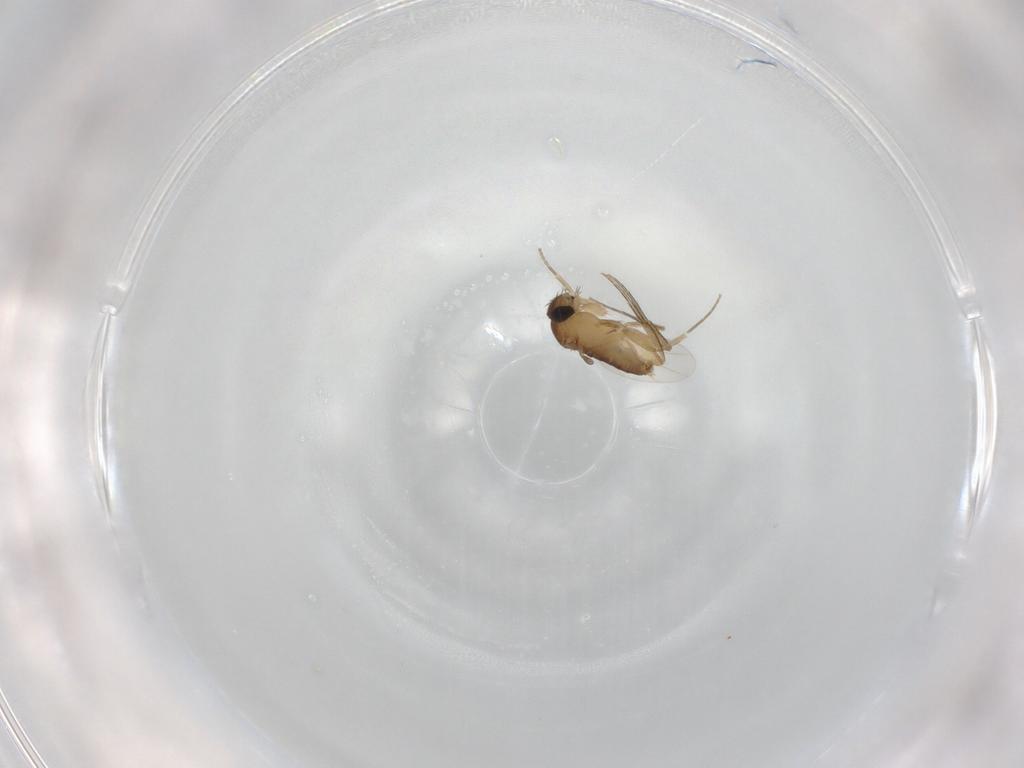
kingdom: Animalia
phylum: Arthropoda
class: Insecta
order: Diptera
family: Phoridae
